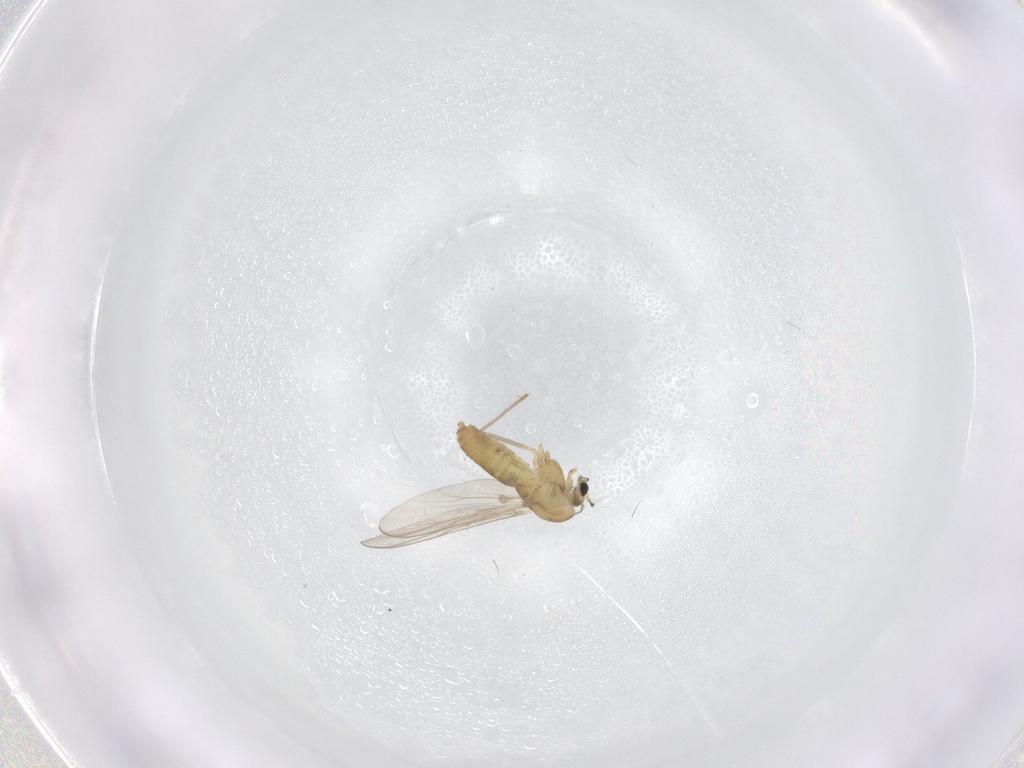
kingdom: Animalia
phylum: Arthropoda
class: Insecta
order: Diptera
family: Chironomidae
